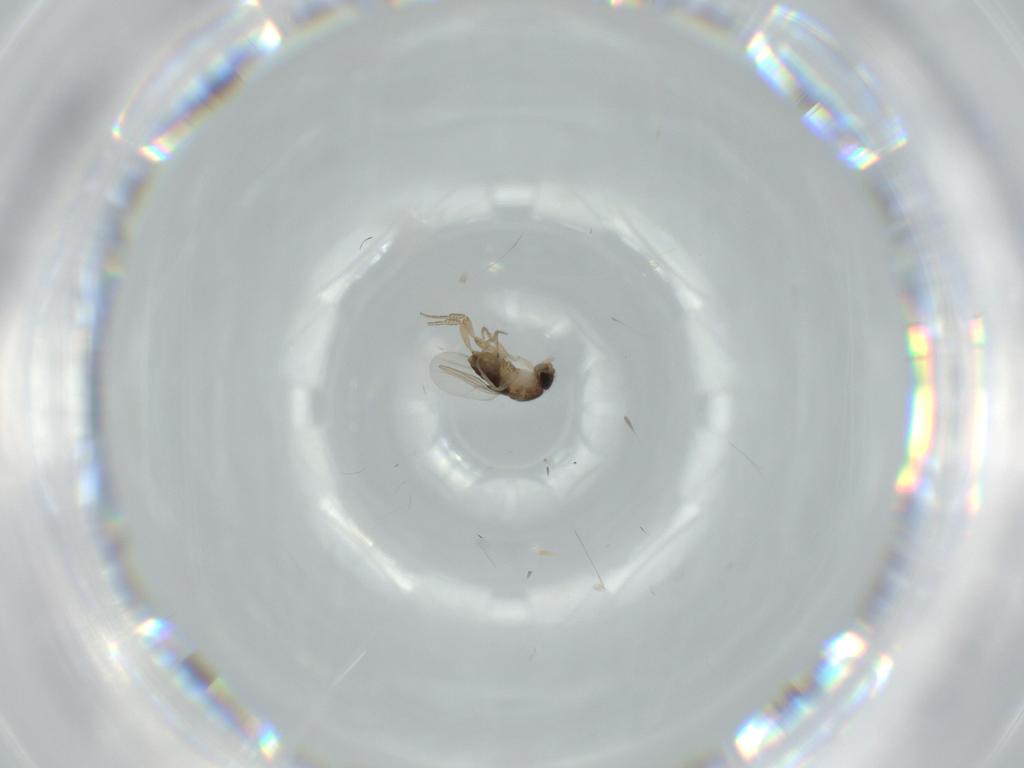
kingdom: Animalia
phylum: Arthropoda
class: Insecta
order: Diptera
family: Phoridae
